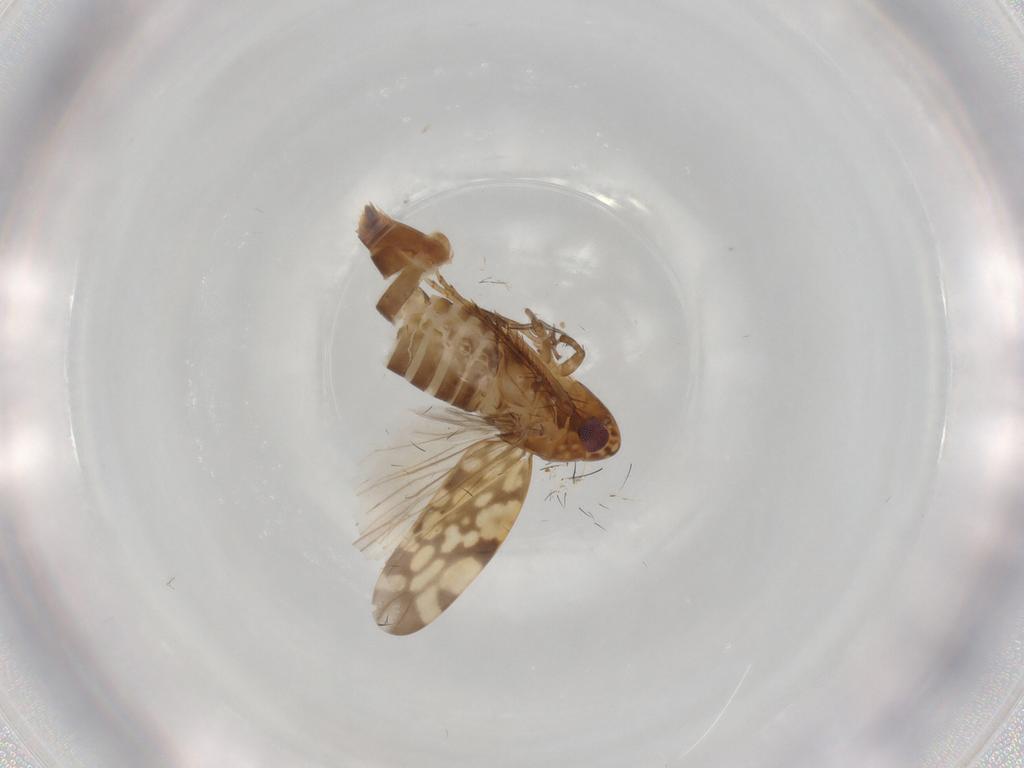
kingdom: Animalia
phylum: Arthropoda
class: Insecta
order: Hemiptera
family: Cicadellidae
